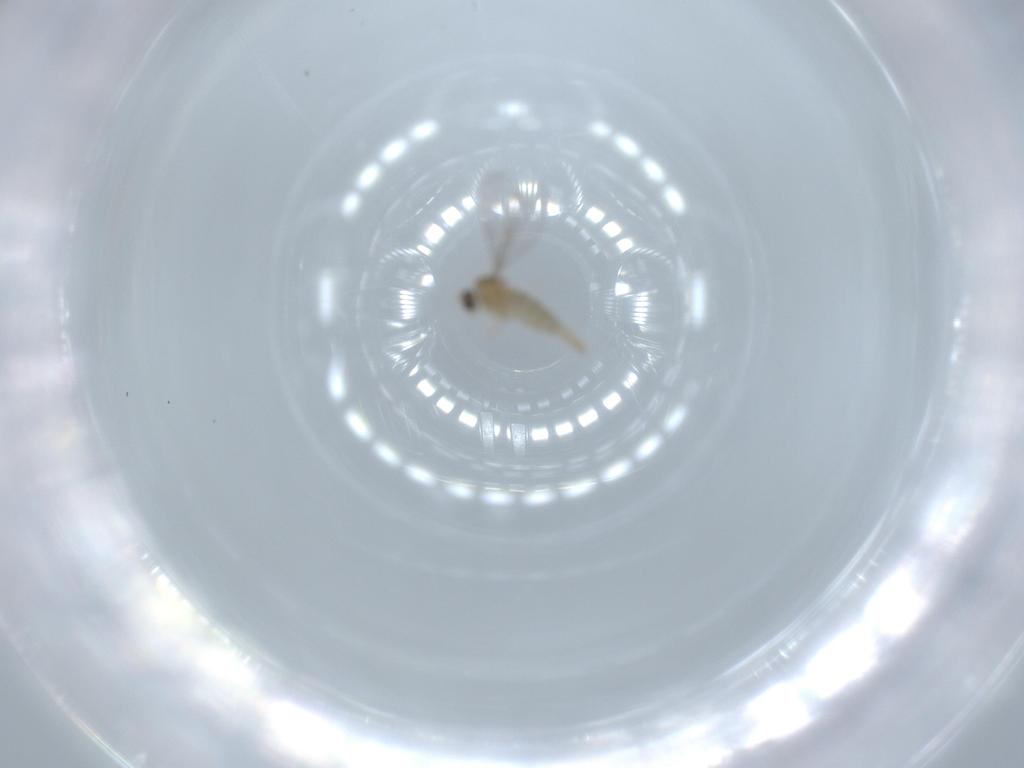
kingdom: Animalia
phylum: Arthropoda
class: Insecta
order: Diptera
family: Cecidomyiidae
